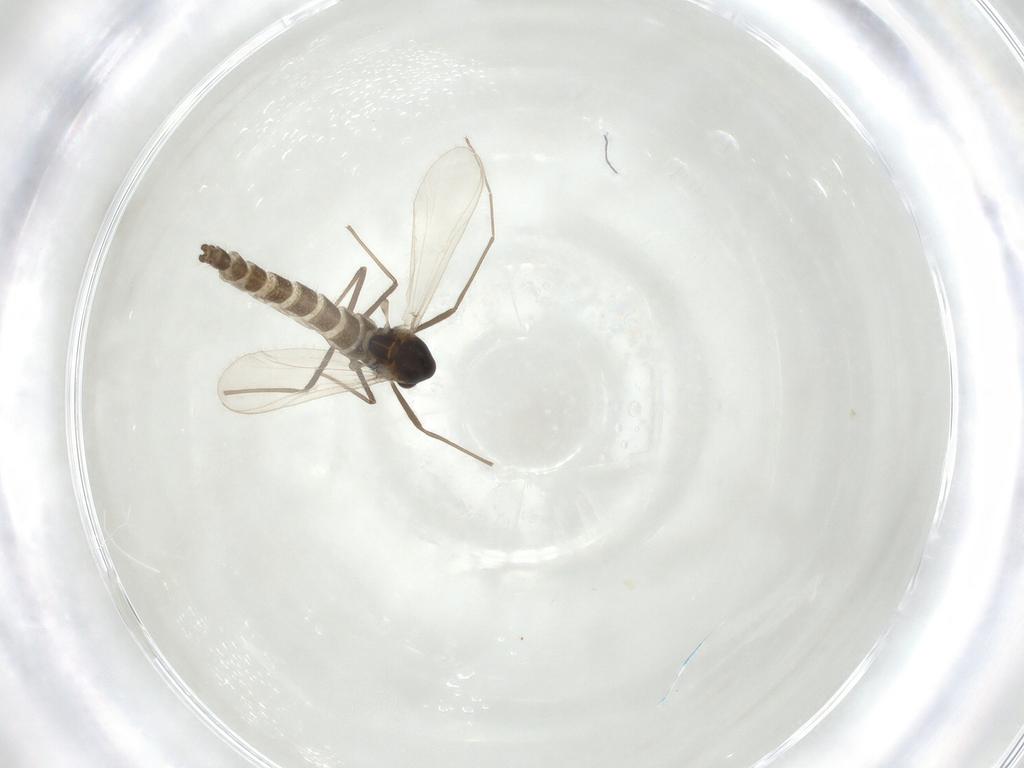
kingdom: Animalia
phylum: Arthropoda
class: Insecta
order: Diptera
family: Chironomidae
